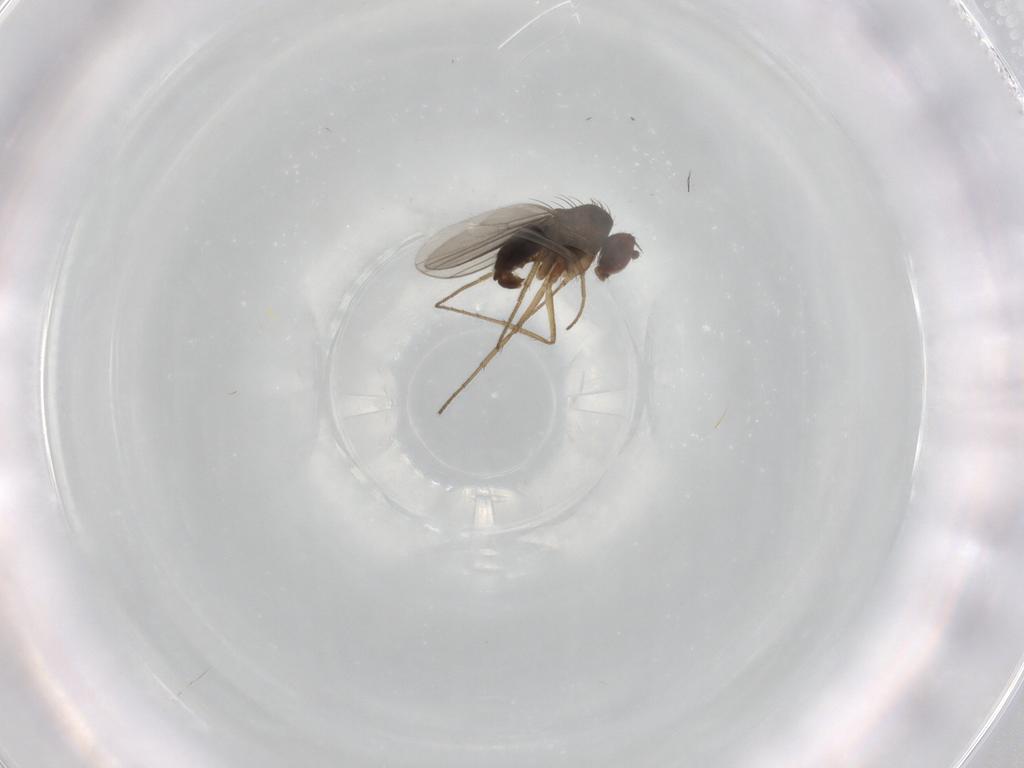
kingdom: Animalia
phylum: Arthropoda
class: Insecta
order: Diptera
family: Dolichopodidae
